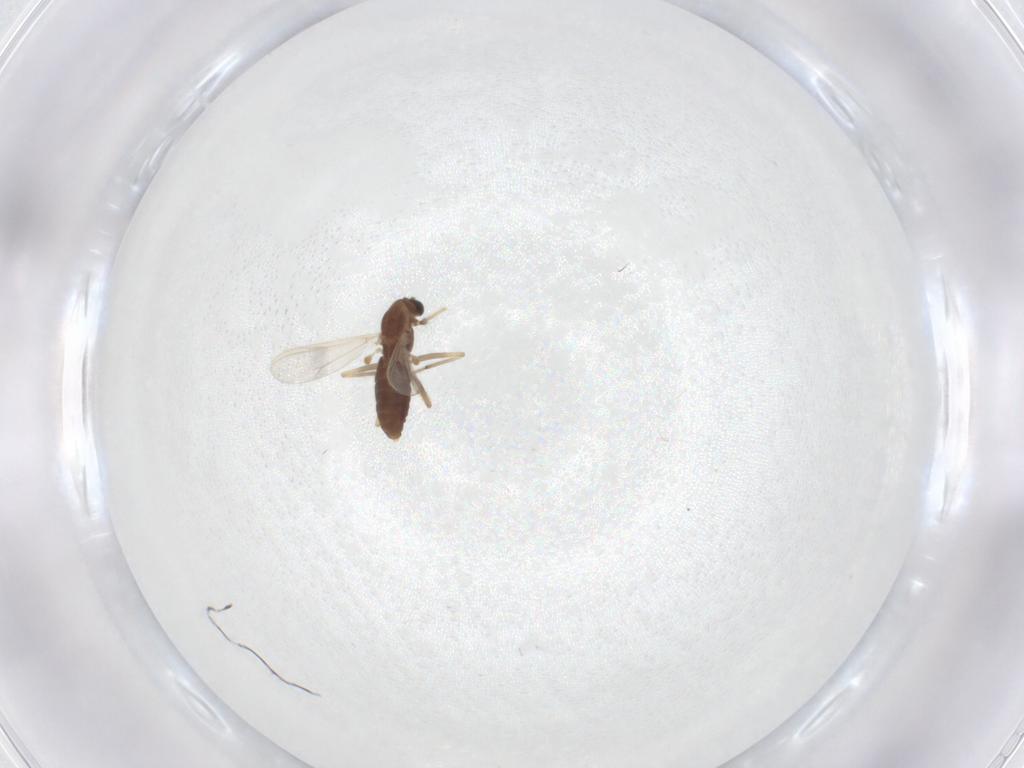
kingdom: Animalia
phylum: Arthropoda
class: Insecta
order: Diptera
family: Chironomidae
